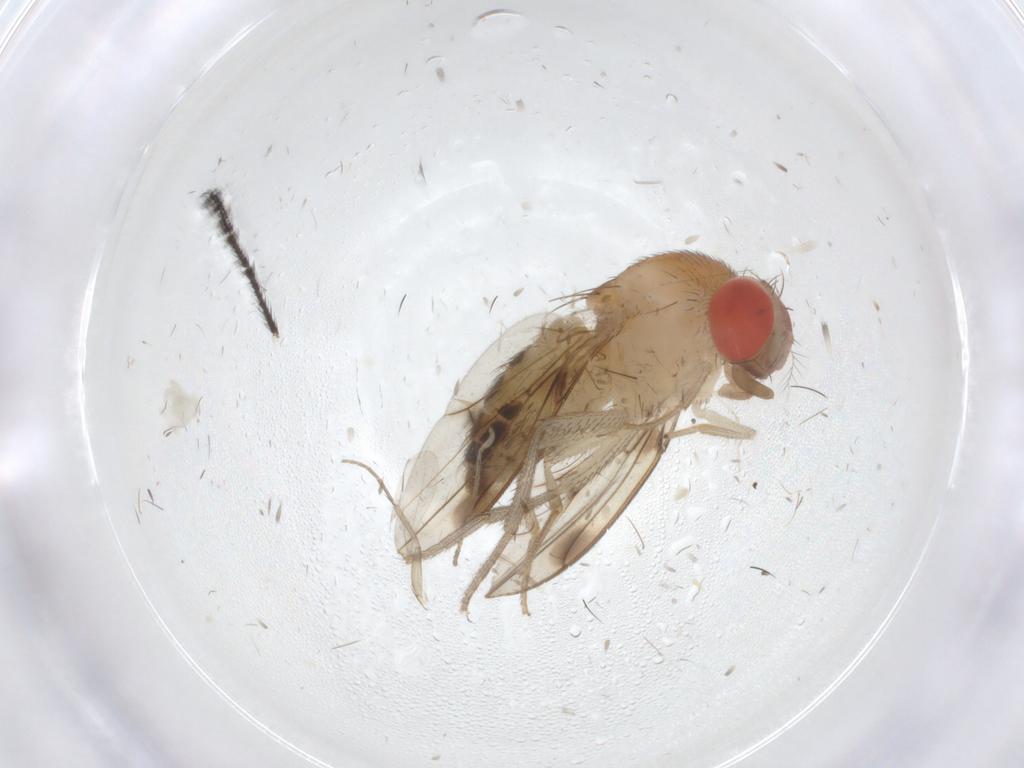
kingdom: Animalia
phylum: Arthropoda
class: Insecta
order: Diptera
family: Drosophilidae
